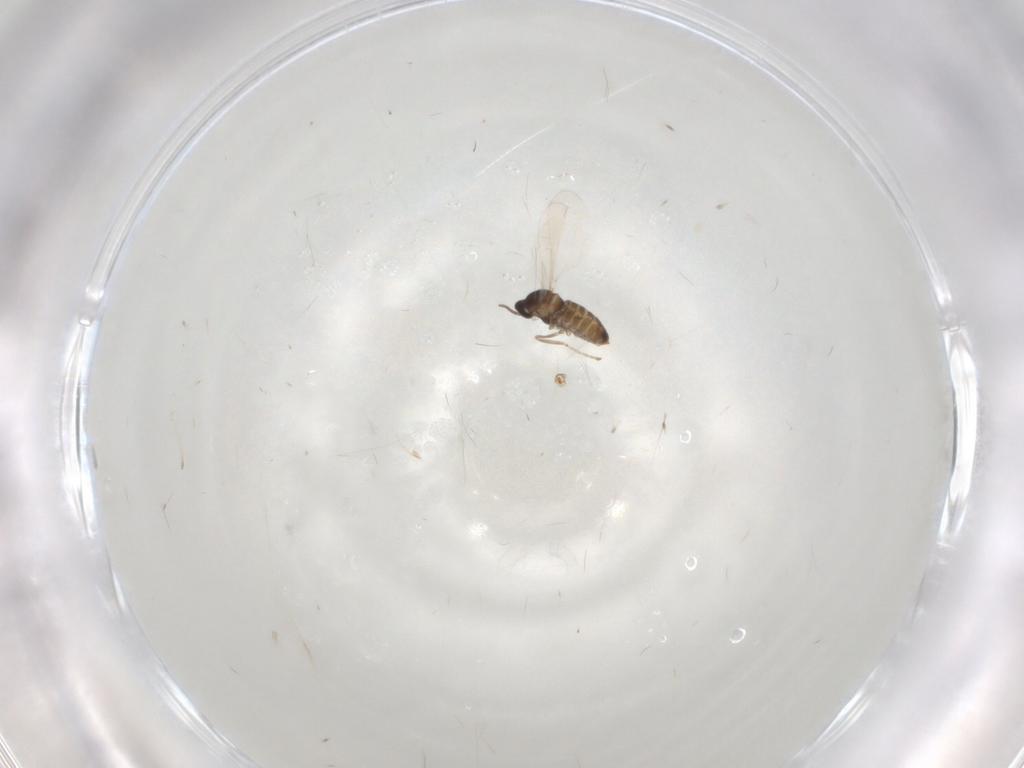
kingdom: Animalia
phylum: Arthropoda
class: Insecta
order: Diptera
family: Cecidomyiidae
